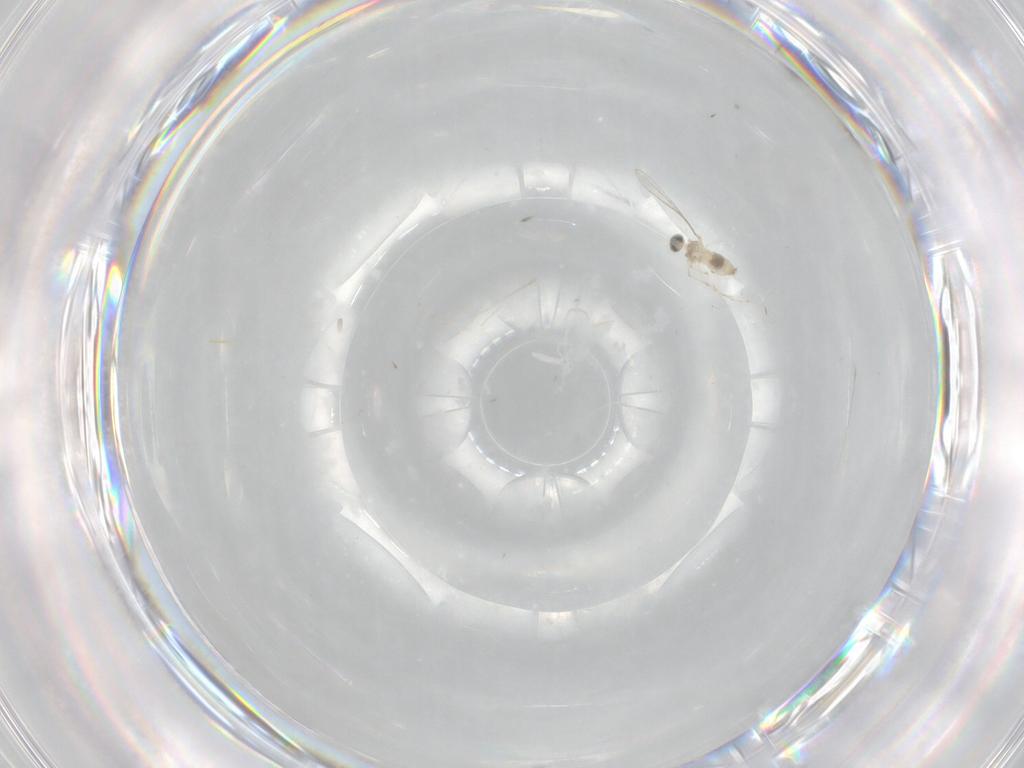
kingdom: Animalia
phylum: Arthropoda
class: Insecta
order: Diptera
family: Cecidomyiidae
